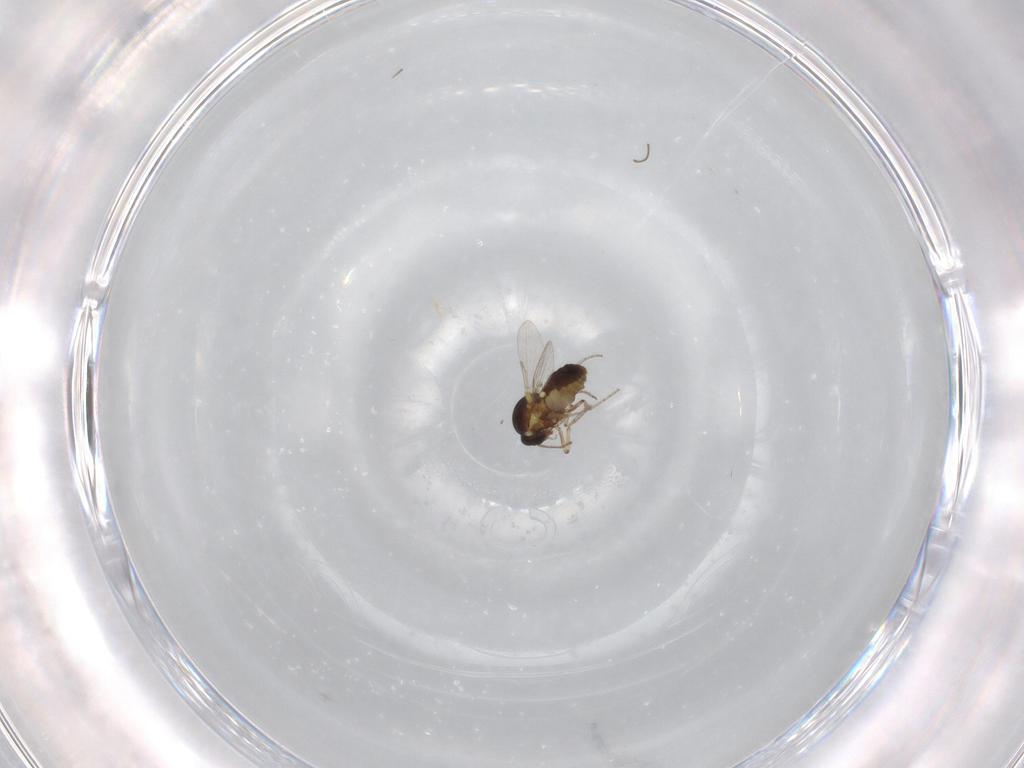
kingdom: Animalia
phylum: Arthropoda
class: Insecta
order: Diptera
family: Ceratopogonidae
